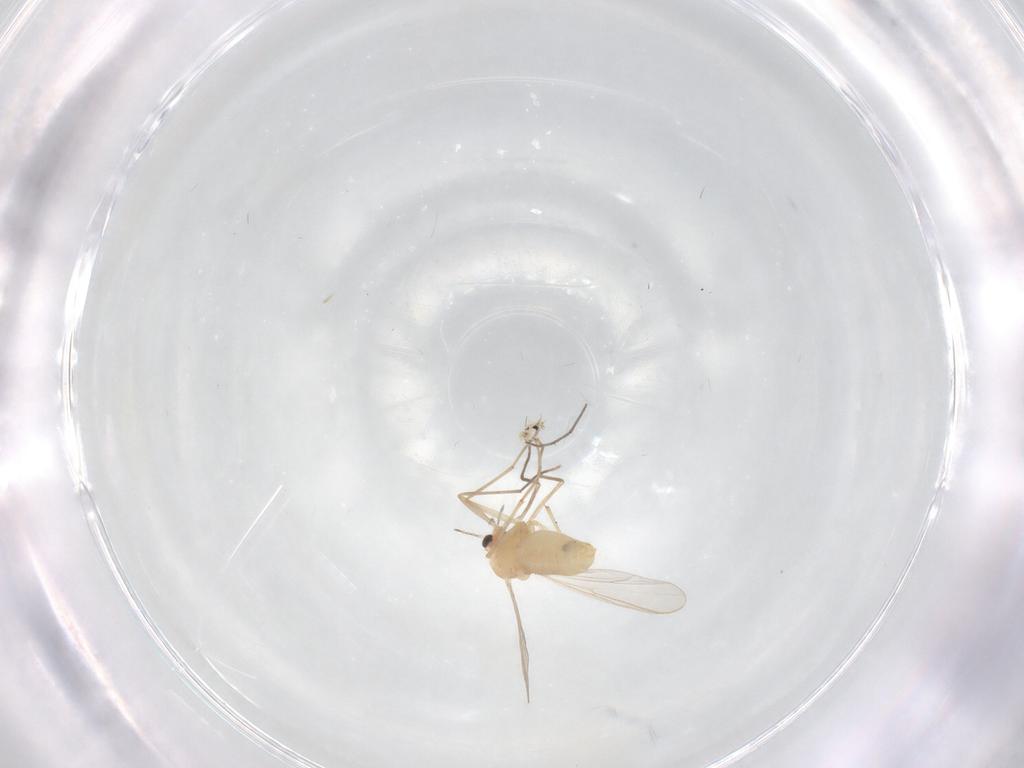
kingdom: Animalia
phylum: Arthropoda
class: Insecta
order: Diptera
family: Chironomidae
